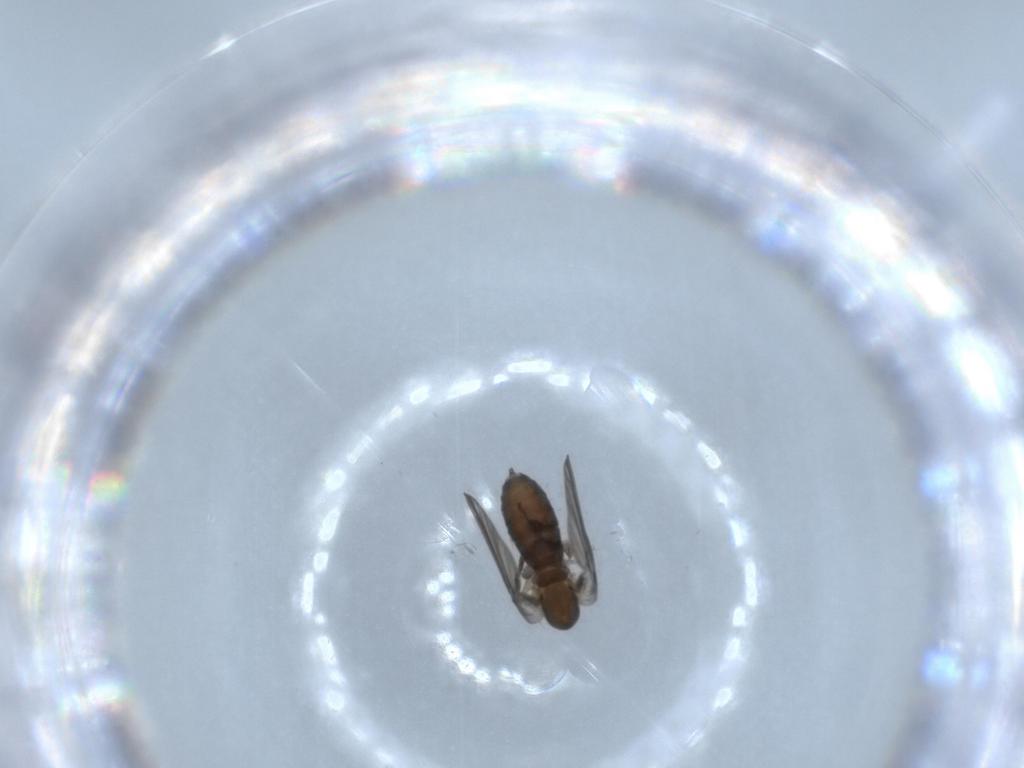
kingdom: Animalia
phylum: Arthropoda
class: Insecta
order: Diptera
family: Psychodidae
